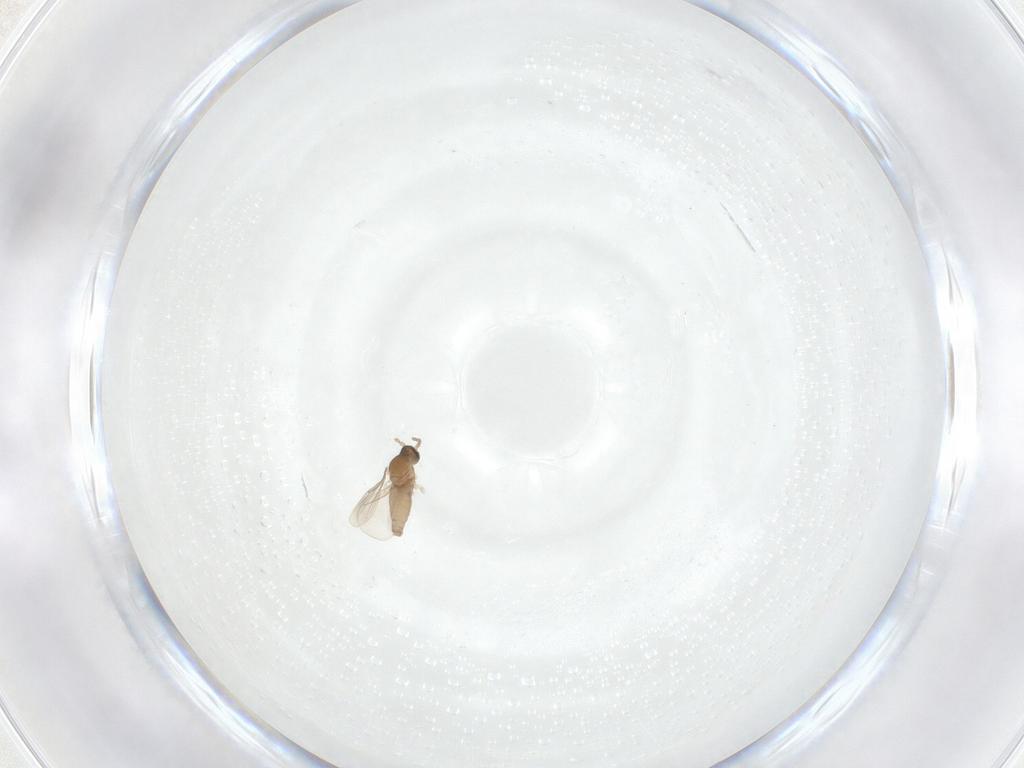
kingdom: Animalia
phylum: Arthropoda
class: Insecta
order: Diptera
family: Cecidomyiidae
